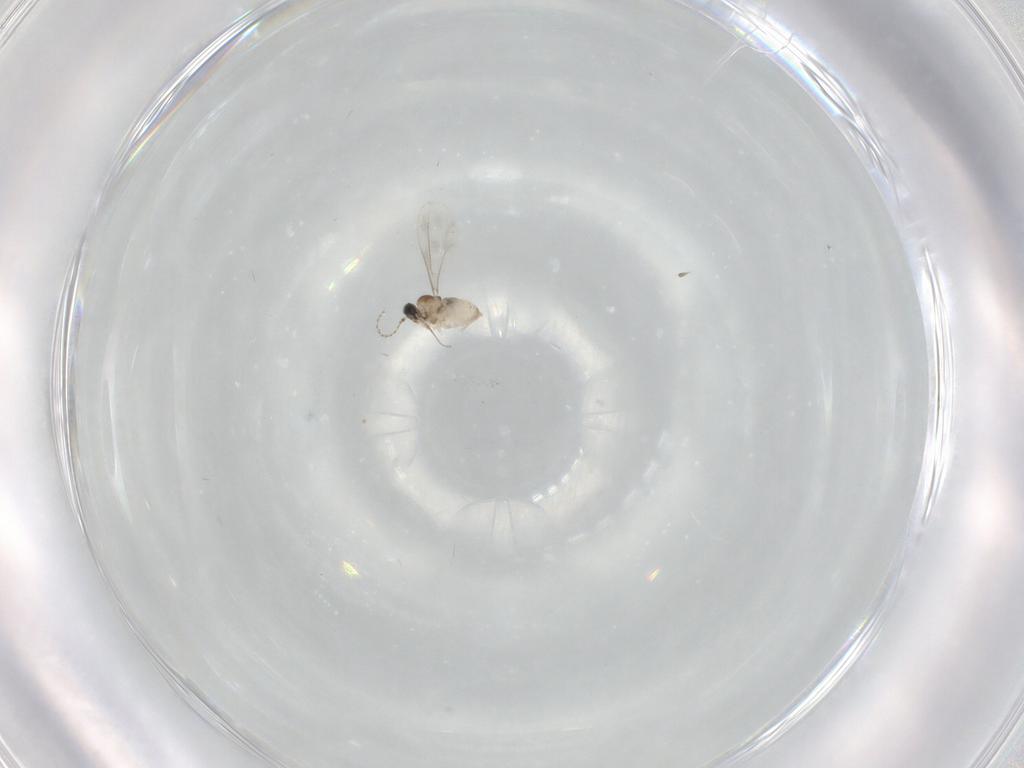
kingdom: Animalia
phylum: Arthropoda
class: Insecta
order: Diptera
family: Cecidomyiidae
